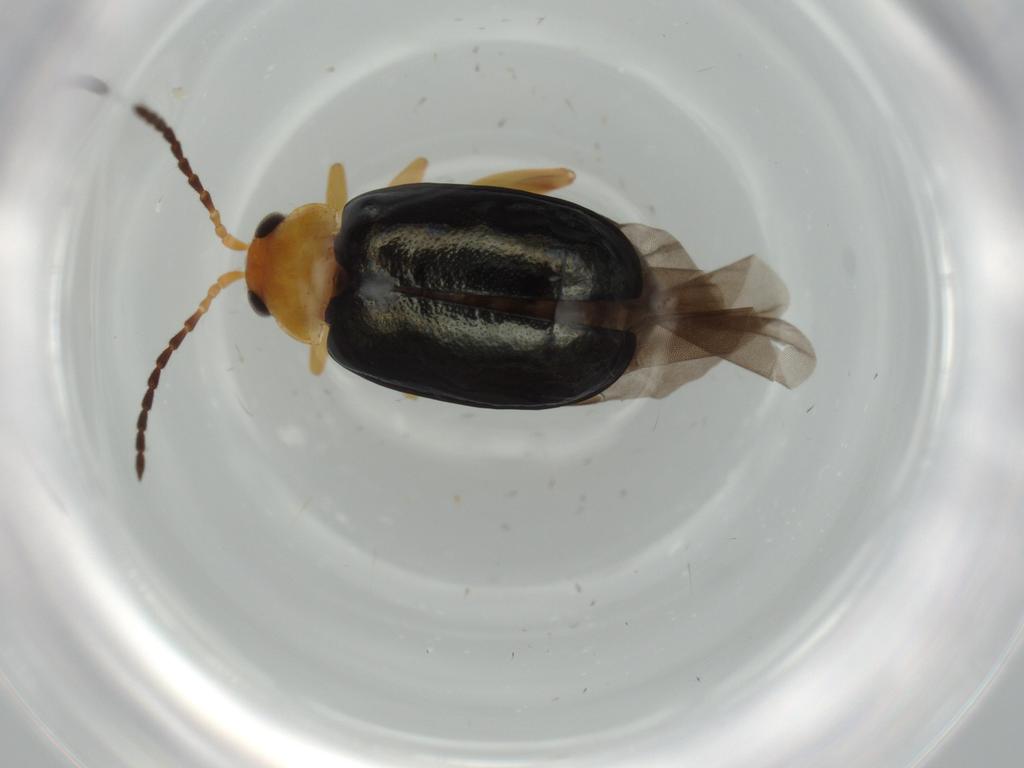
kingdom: Animalia
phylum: Arthropoda
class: Insecta
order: Coleoptera
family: Chrysomelidae
